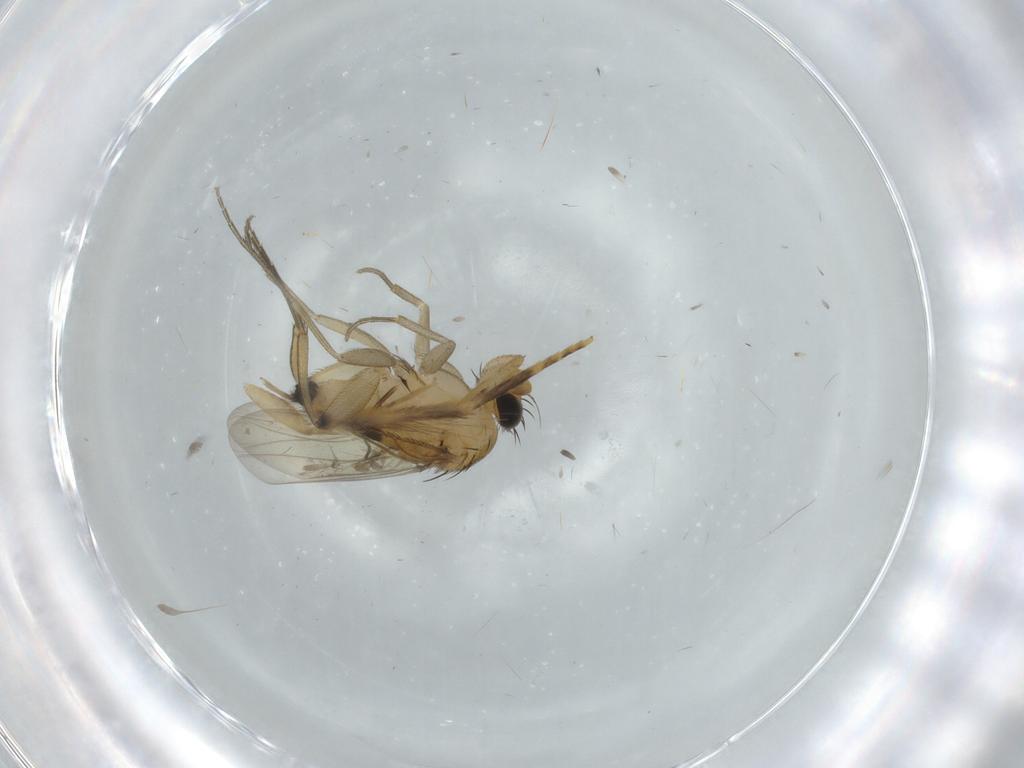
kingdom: Animalia
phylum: Arthropoda
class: Insecta
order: Diptera
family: Phoridae
